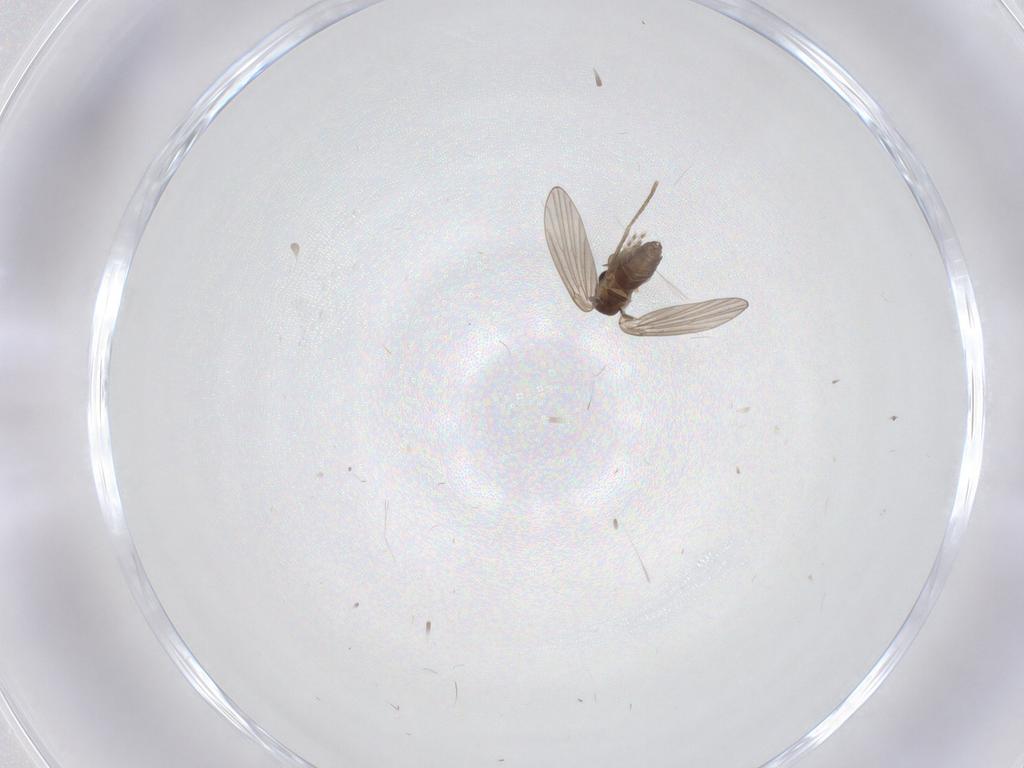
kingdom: Animalia
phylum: Arthropoda
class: Insecta
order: Diptera
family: Psychodidae
